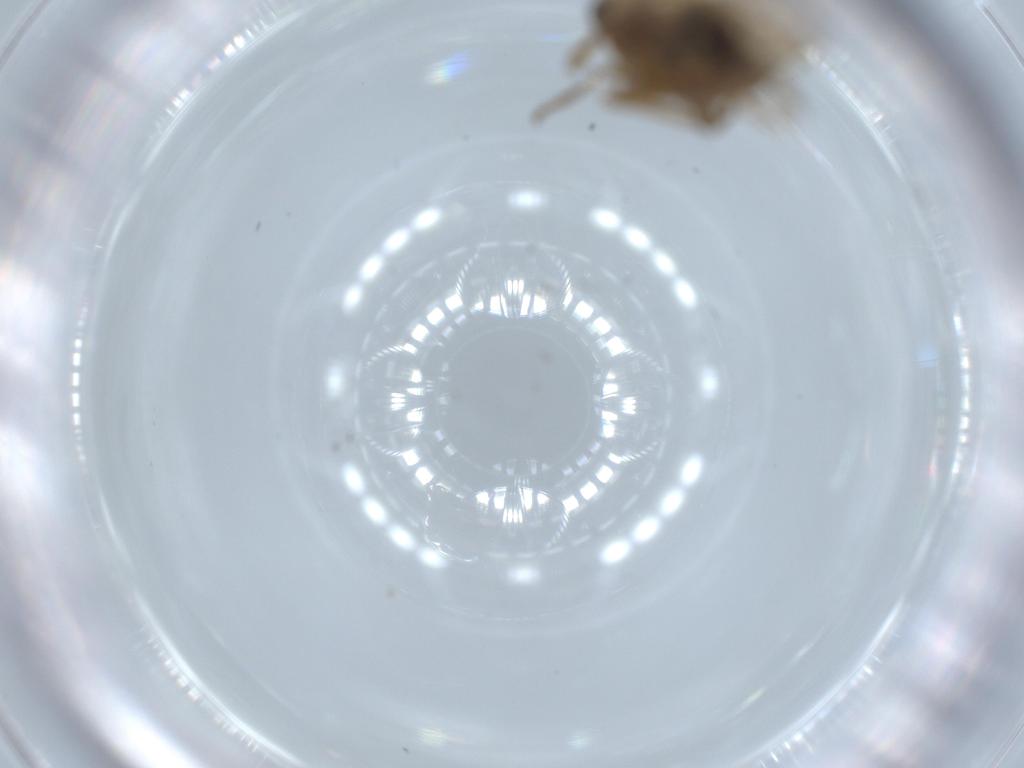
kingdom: Animalia
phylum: Arthropoda
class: Insecta
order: Hemiptera
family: Delphacidae
